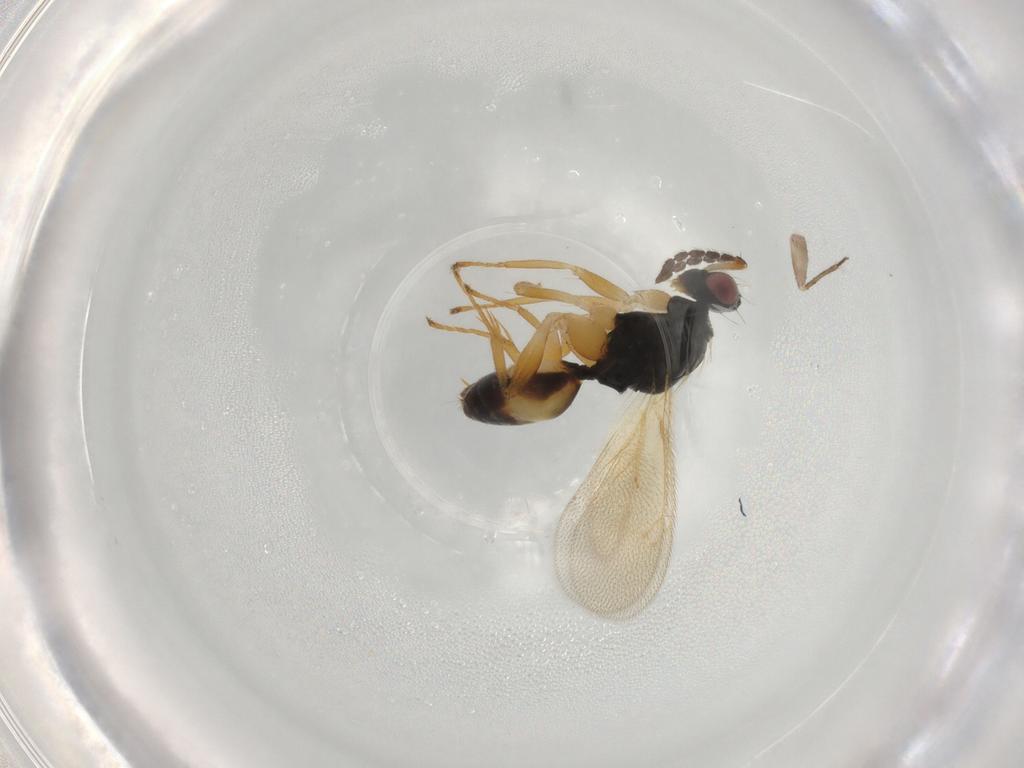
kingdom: Animalia
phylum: Arthropoda
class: Insecta
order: Hymenoptera
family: Eulophidae
